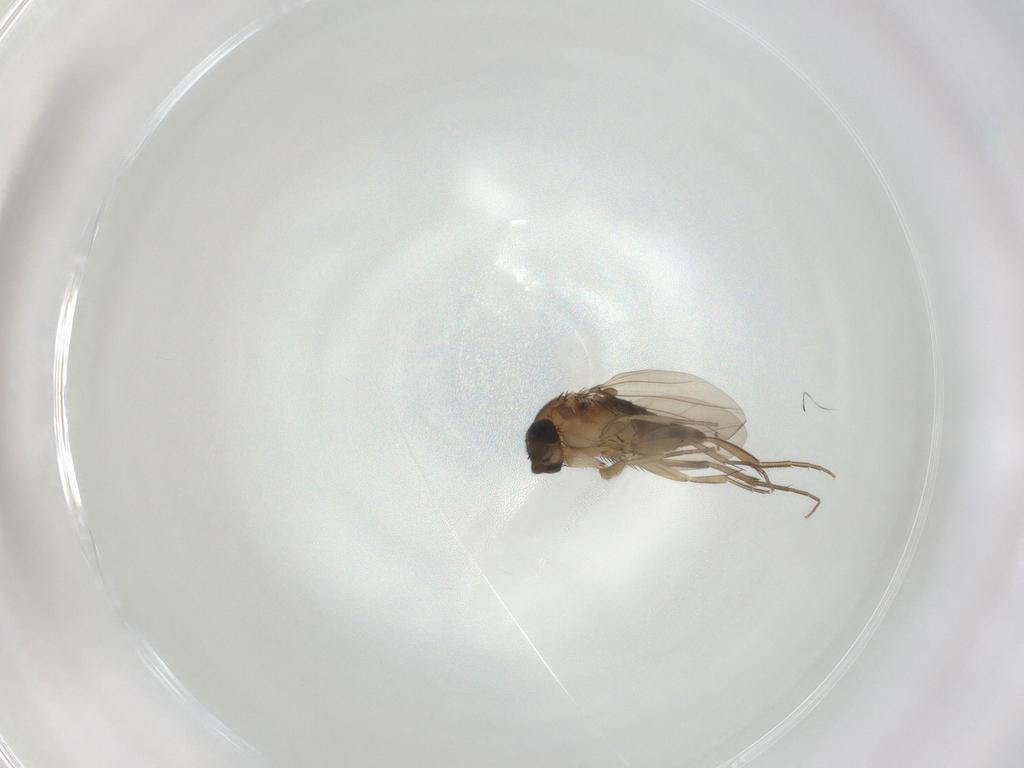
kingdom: Animalia
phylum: Arthropoda
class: Insecta
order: Diptera
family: Phoridae
